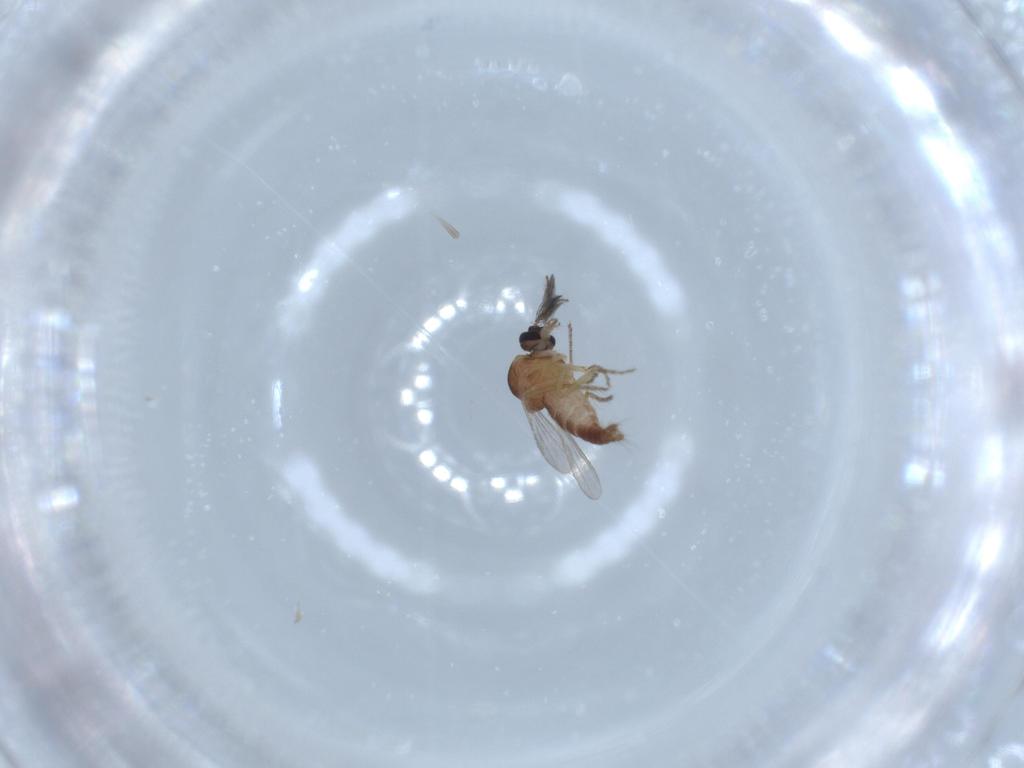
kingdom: Animalia
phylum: Arthropoda
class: Insecta
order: Diptera
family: Ceratopogonidae
